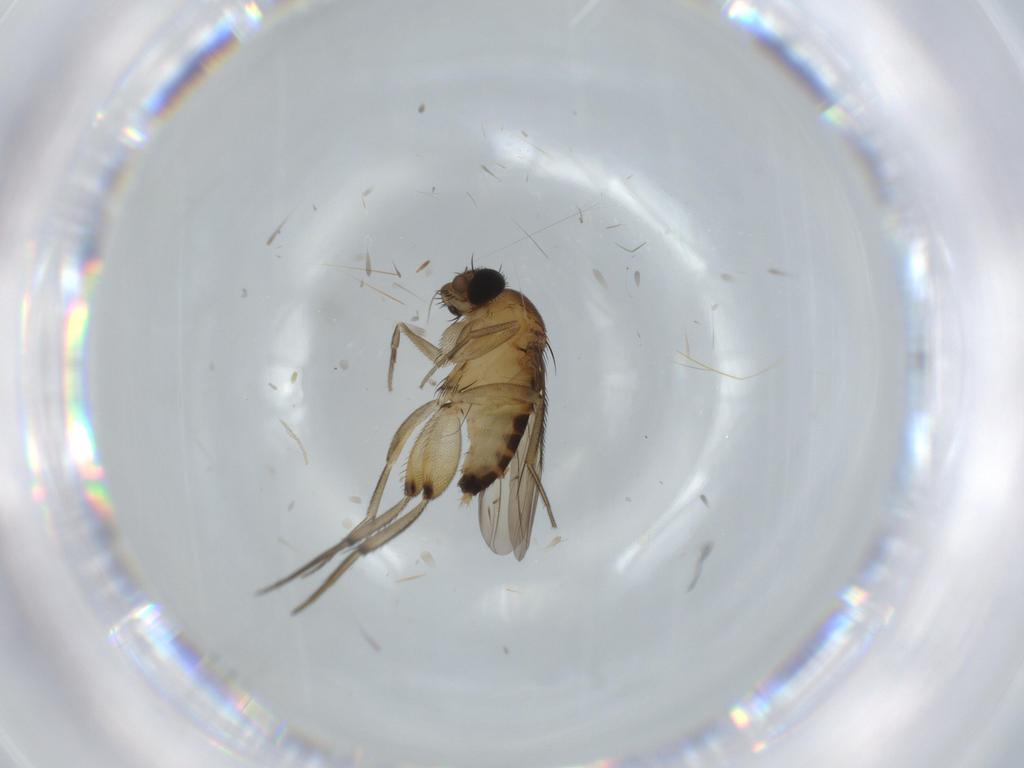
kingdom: Animalia
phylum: Arthropoda
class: Insecta
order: Diptera
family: Phoridae
